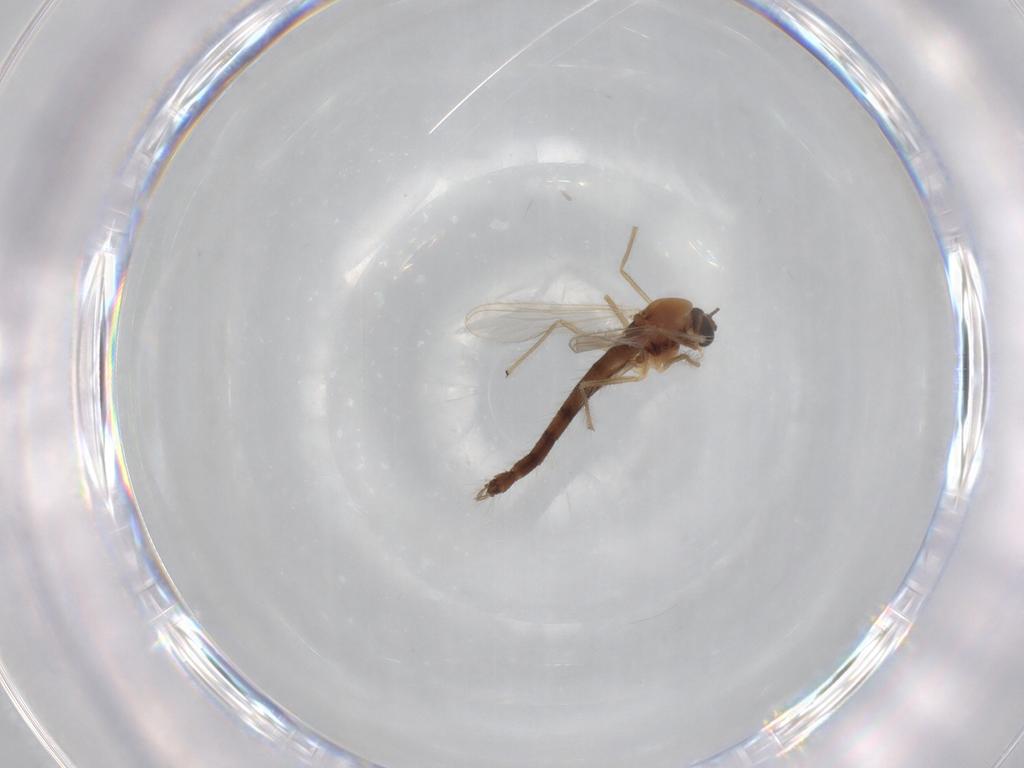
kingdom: Animalia
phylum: Arthropoda
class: Insecta
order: Diptera
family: Chironomidae
